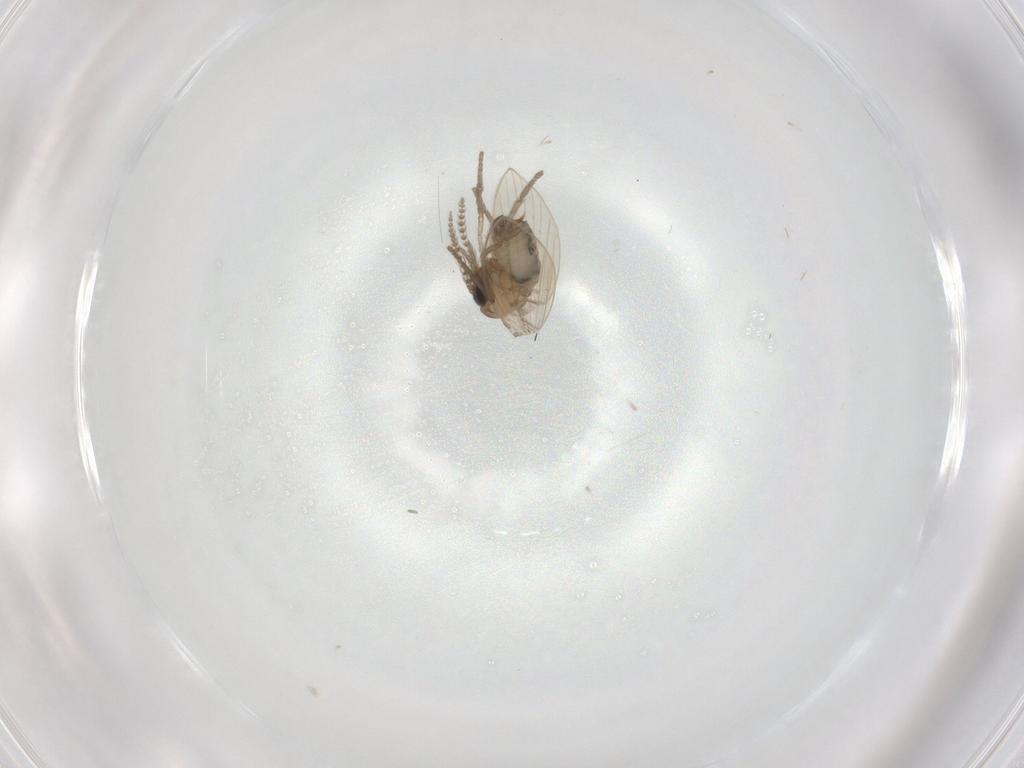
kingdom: Animalia
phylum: Arthropoda
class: Insecta
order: Diptera
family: Psychodidae
